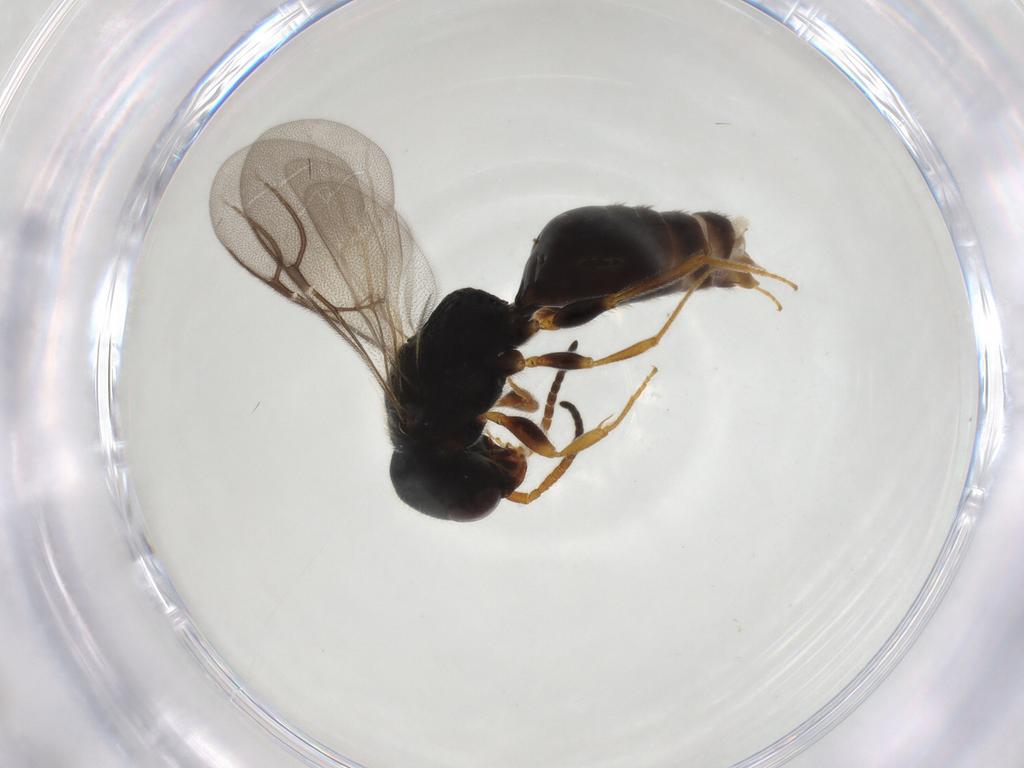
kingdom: Animalia
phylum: Arthropoda
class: Insecta
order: Hymenoptera
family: Bethylidae
